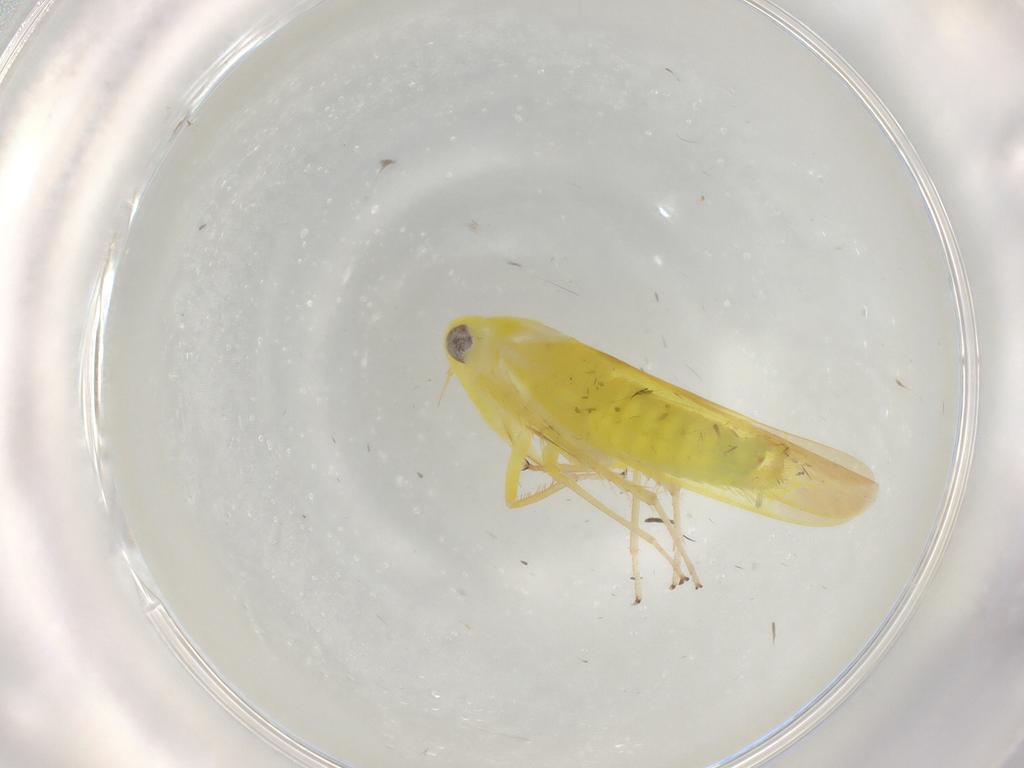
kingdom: Animalia
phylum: Arthropoda
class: Insecta
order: Hemiptera
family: Cicadellidae
